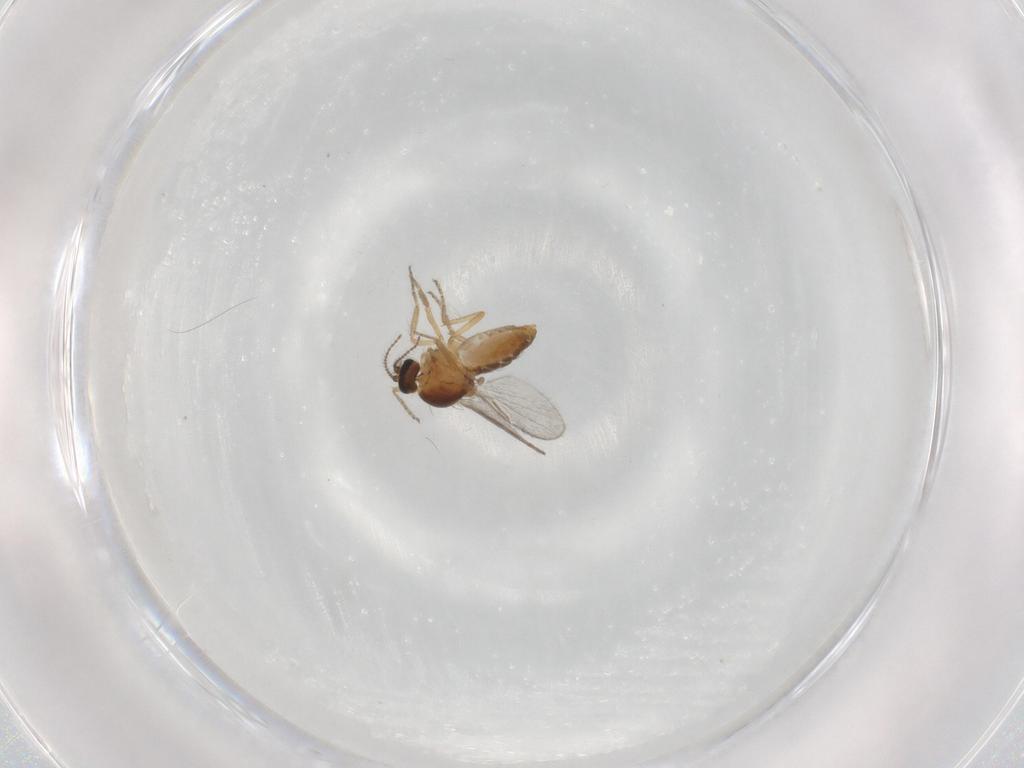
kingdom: Animalia
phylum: Arthropoda
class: Insecta
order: Diptera
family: Ceratopogonidae
